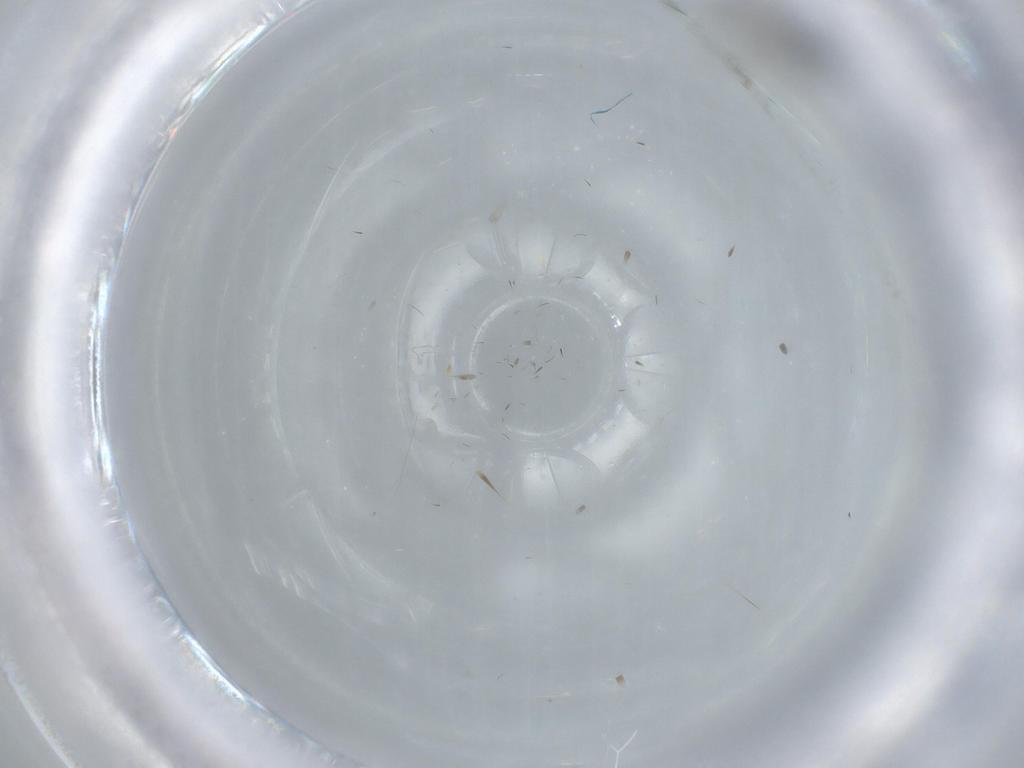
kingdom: Animalia
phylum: Arthropoda
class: Insecta
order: Diptera
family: Hybotidae
